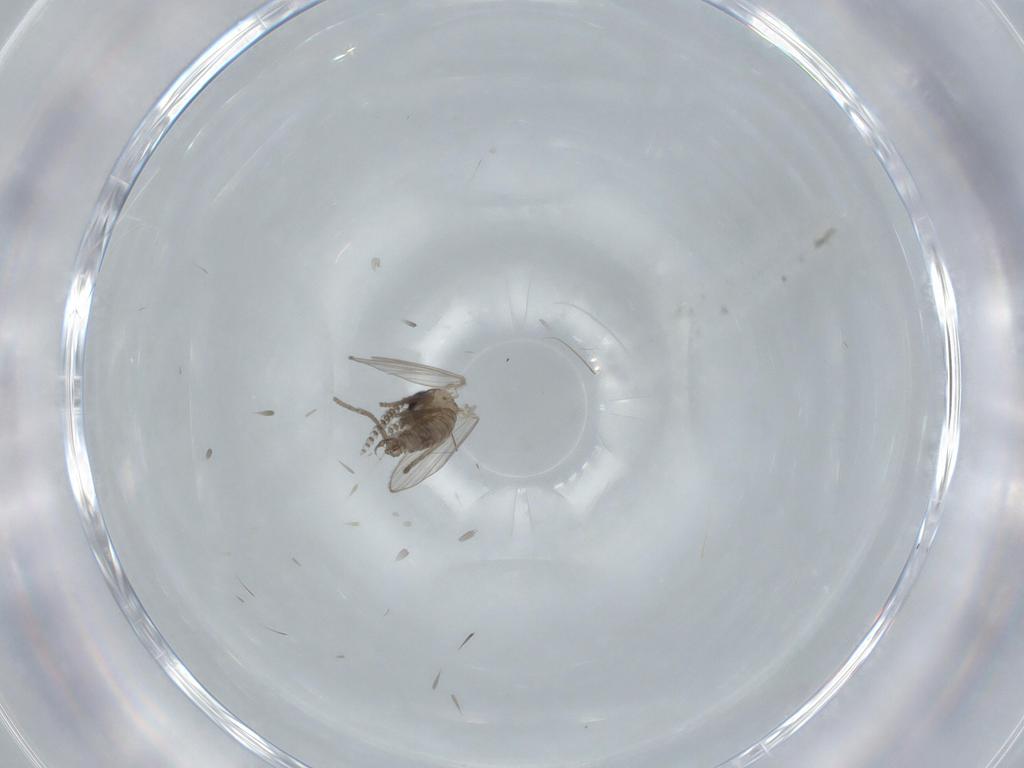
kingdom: Animalia
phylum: Arthropoda
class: Insecta
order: Diptera
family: Psychodidae
